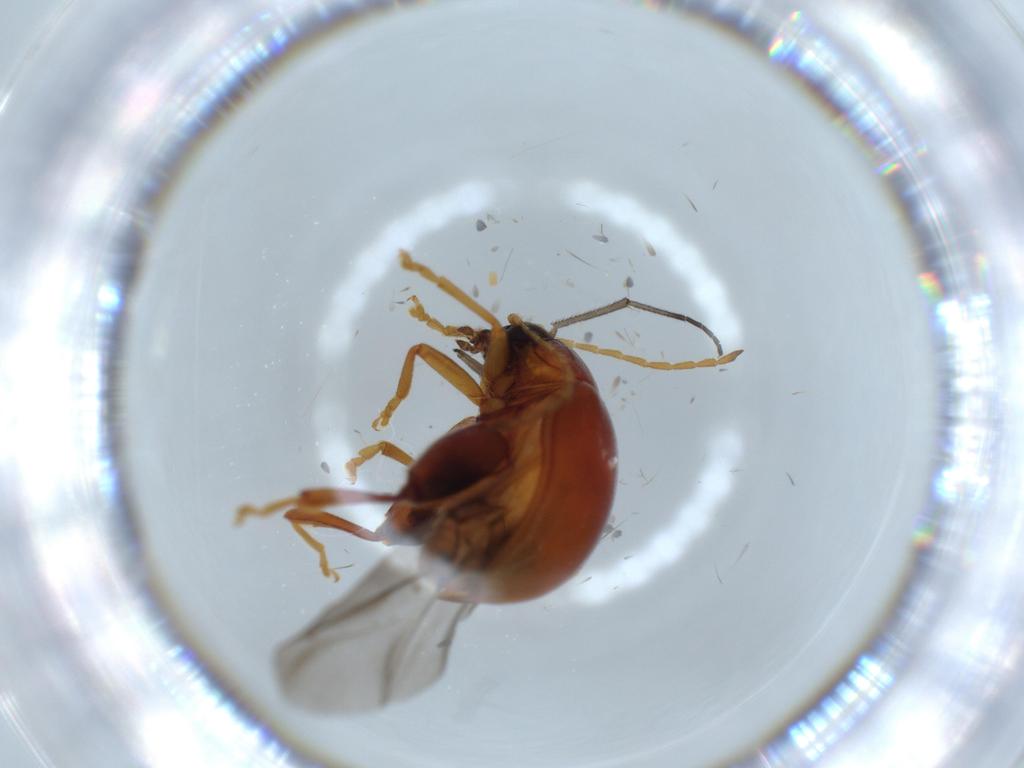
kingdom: Animalia
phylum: Arthropoda
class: Insecta
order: Coleoptera
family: Chrysomelidae
